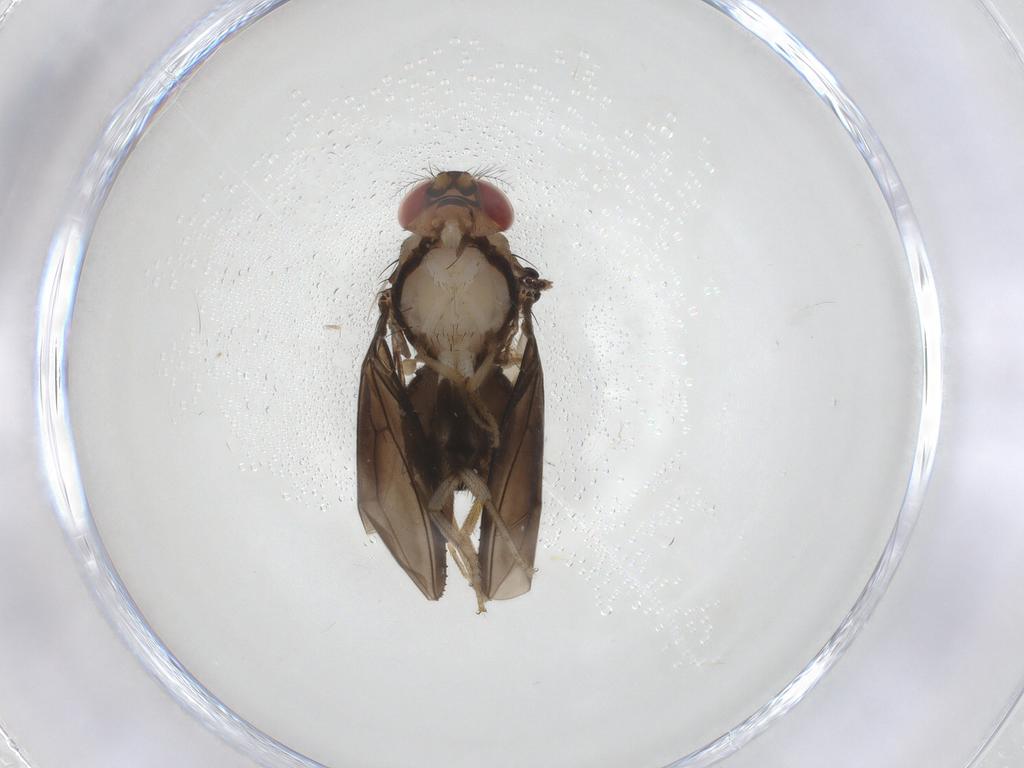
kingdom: Animalia
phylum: Arthropoda
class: Insecta
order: Diptera
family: Drosophilidae
